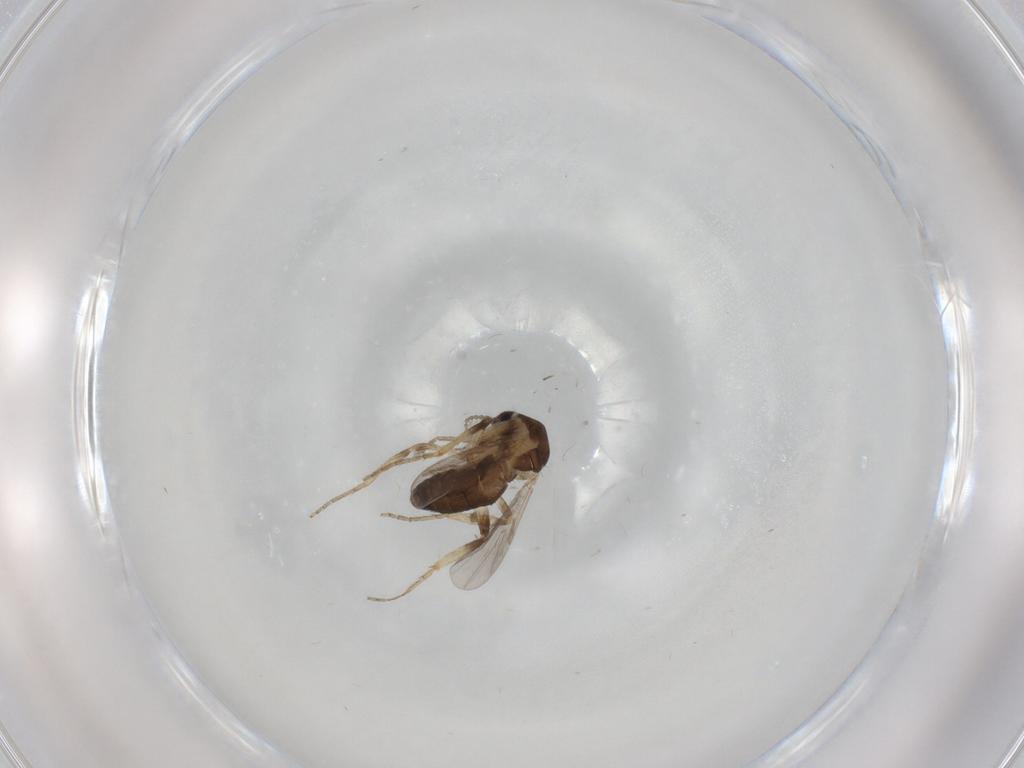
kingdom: Animalia
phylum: Arthropoda
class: Insecta
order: Diptera
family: Ceratopogonidae
